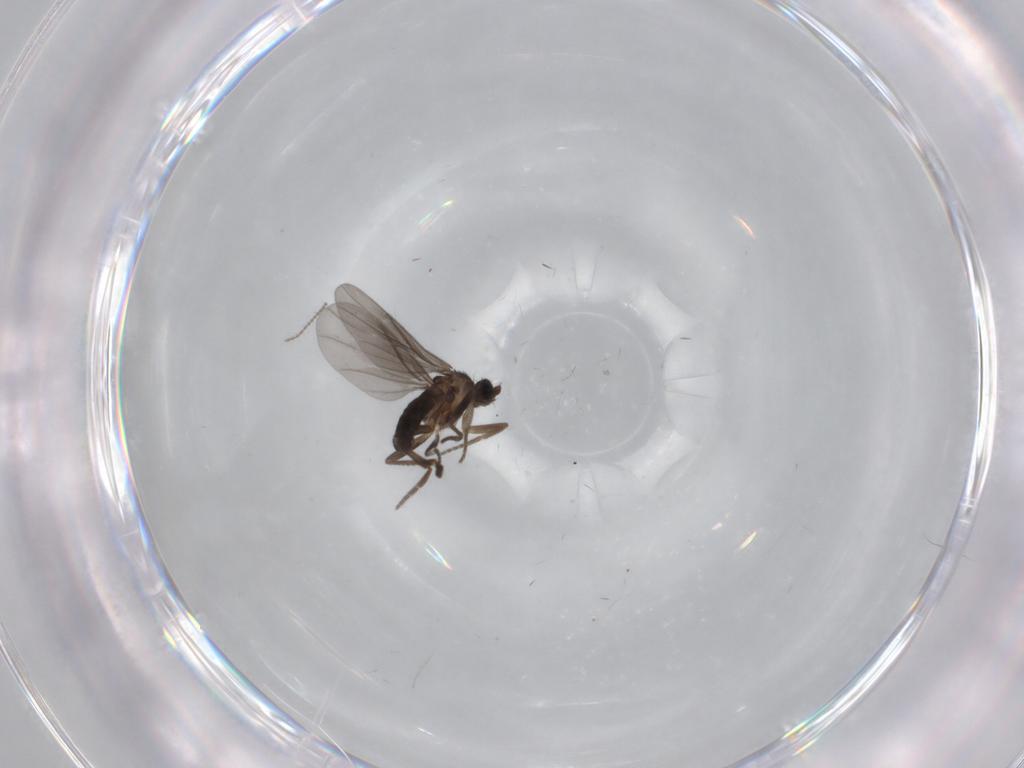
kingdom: Animalia
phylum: Arthropoda
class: Insecta
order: Diptera
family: Phoridae
